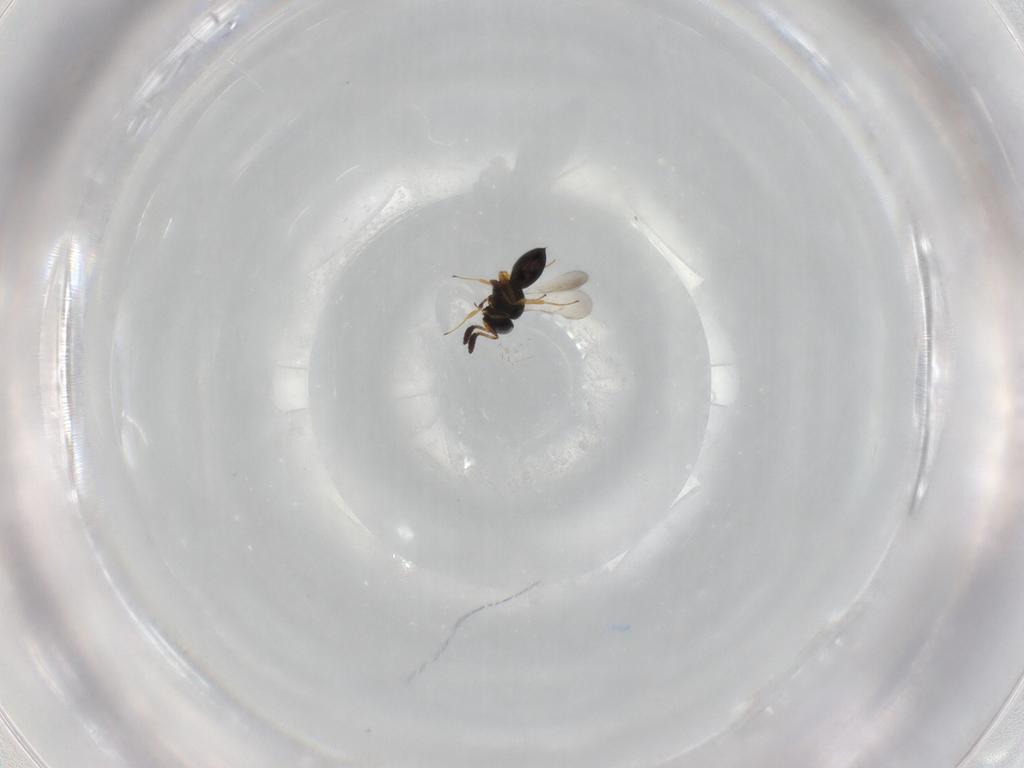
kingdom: Animalia
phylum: Arthropoda
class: Insecta
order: Hymenoptera
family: Scelionidae
